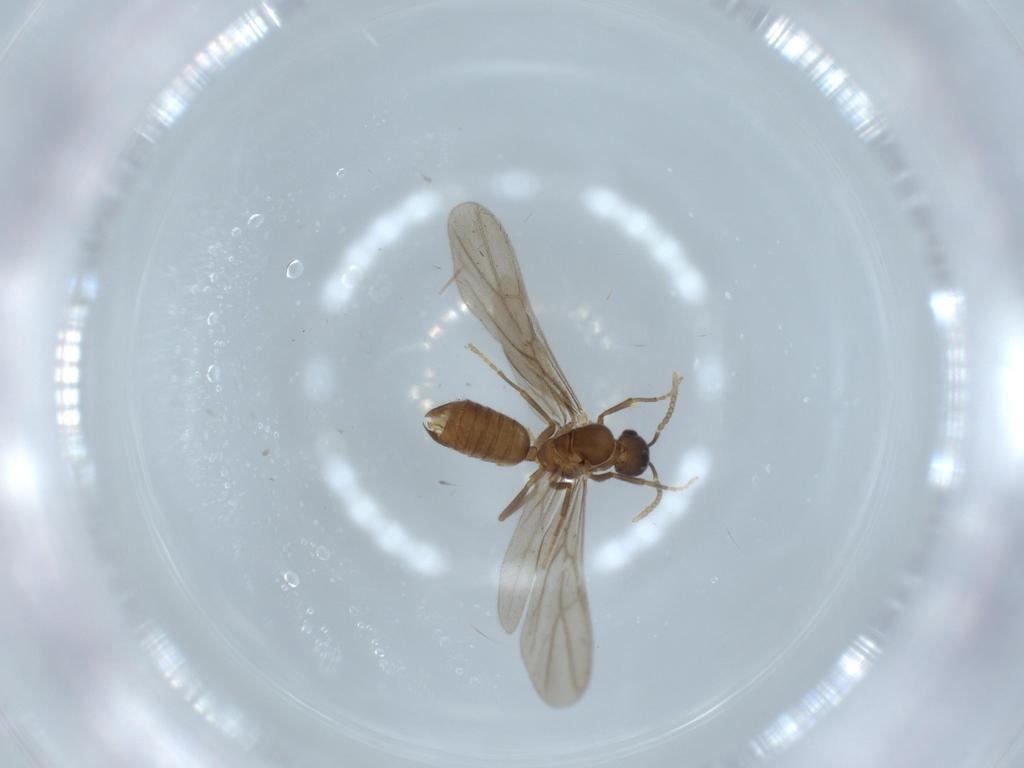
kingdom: Animalia
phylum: Arthropoda
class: Insecta
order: Hymenoptera
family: Formicidae
